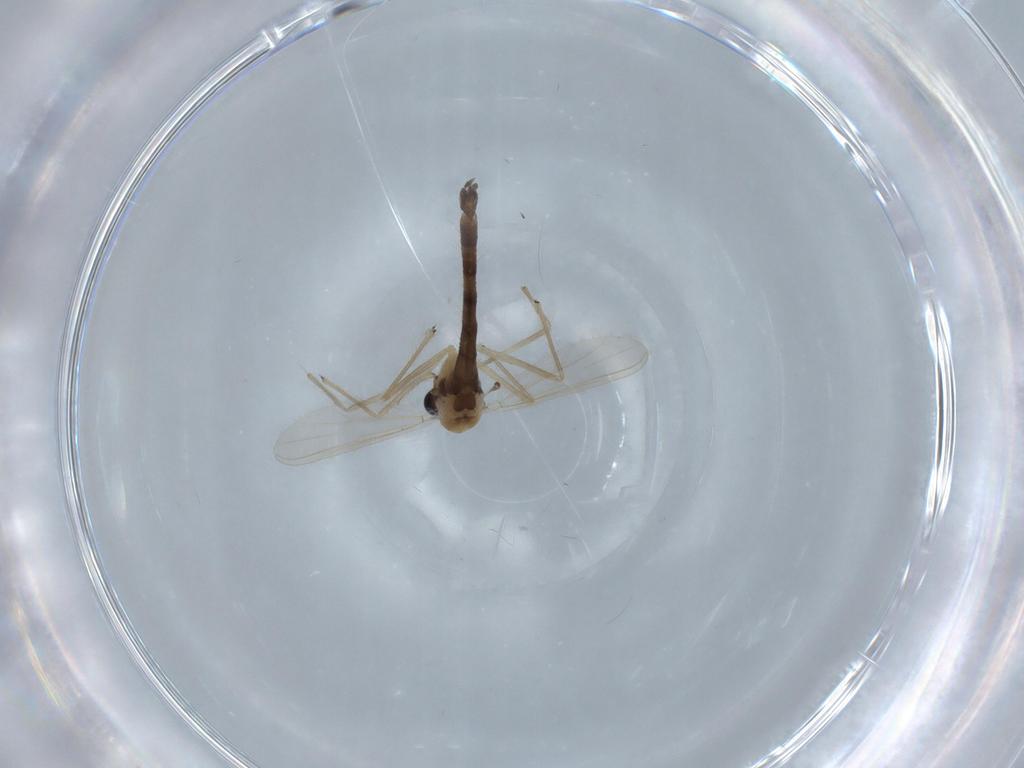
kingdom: Animalia
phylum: Arthropoda
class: Insecta
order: Diptera
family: Chironomidae
